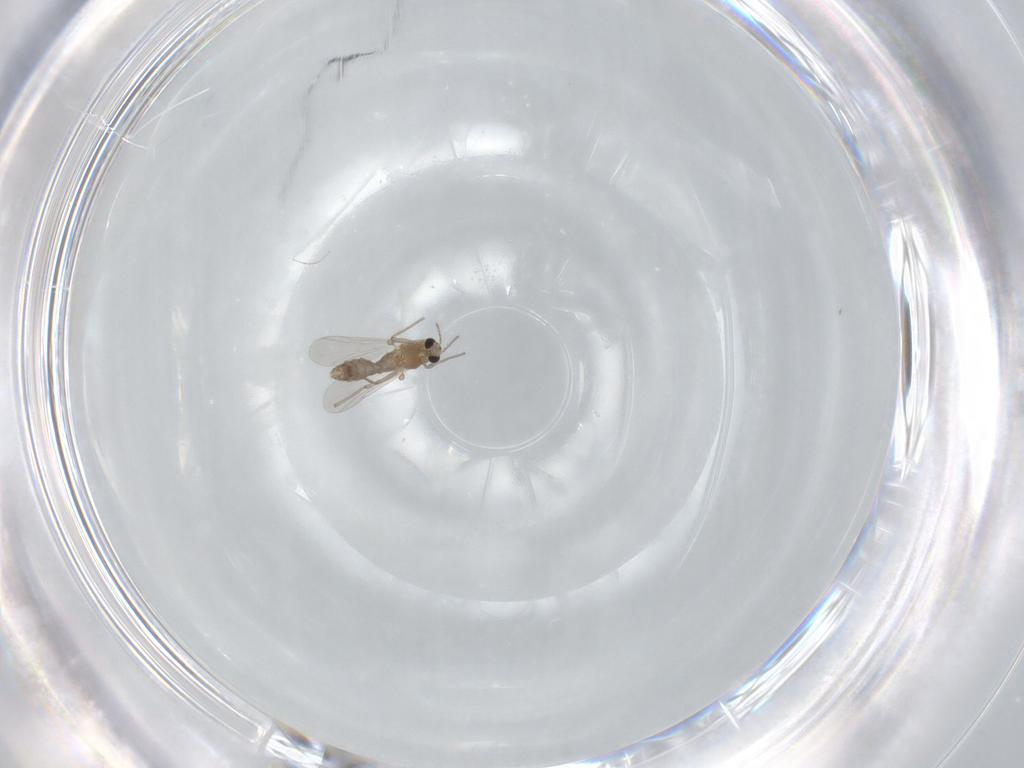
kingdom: Animalia
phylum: Arthropoda
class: Insecta
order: Diptera
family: Chironomidae
